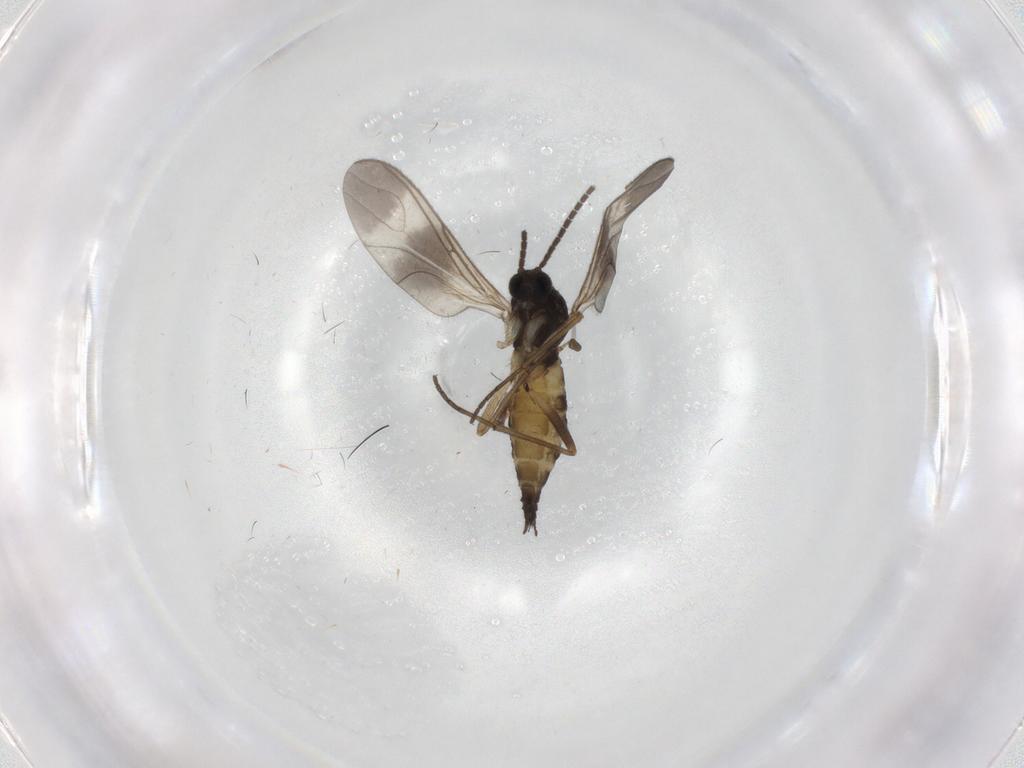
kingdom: Animalia
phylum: Arthropoda
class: Insecta
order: Diptera
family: Sciaridae
